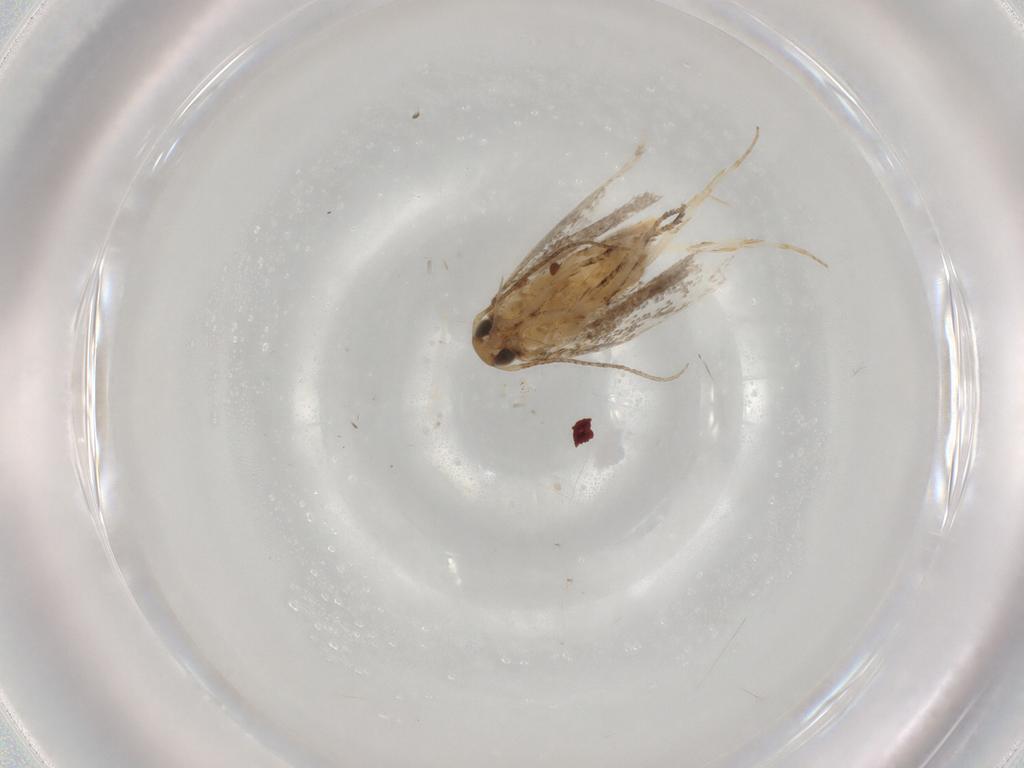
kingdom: Animalia
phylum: Arthropoda
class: Insecta
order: Lepidoptera
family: Gelechiidae
